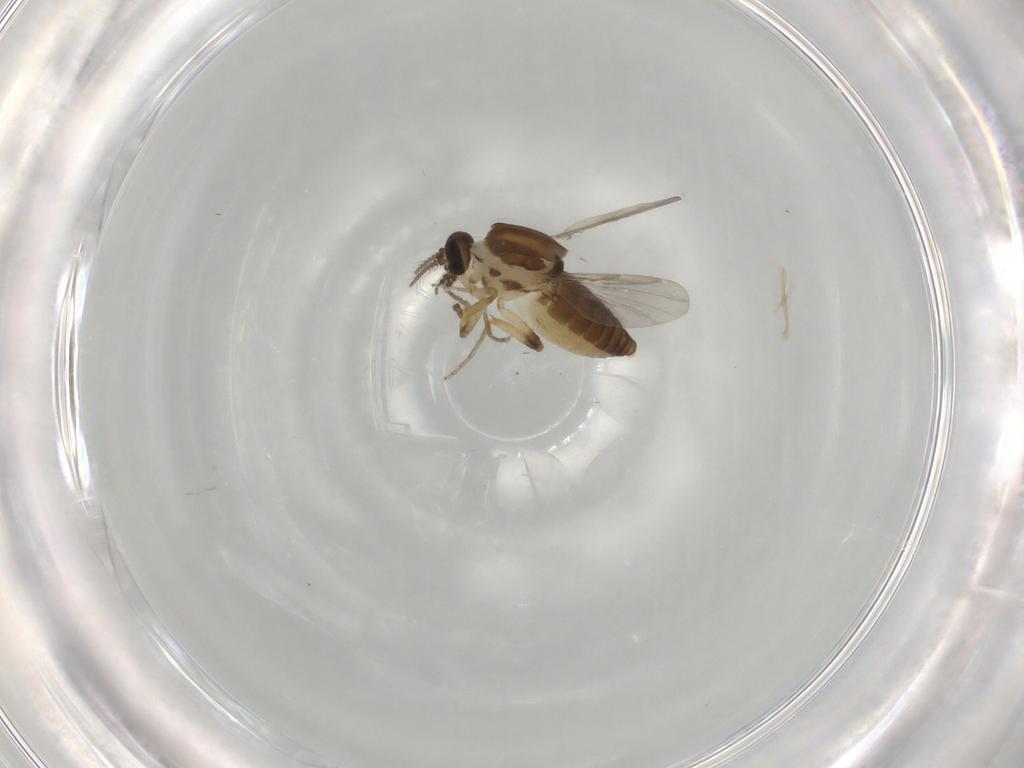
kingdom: Animalia
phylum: Arthropoda
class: Insecta
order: Diptera
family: Ceratopogonidae
